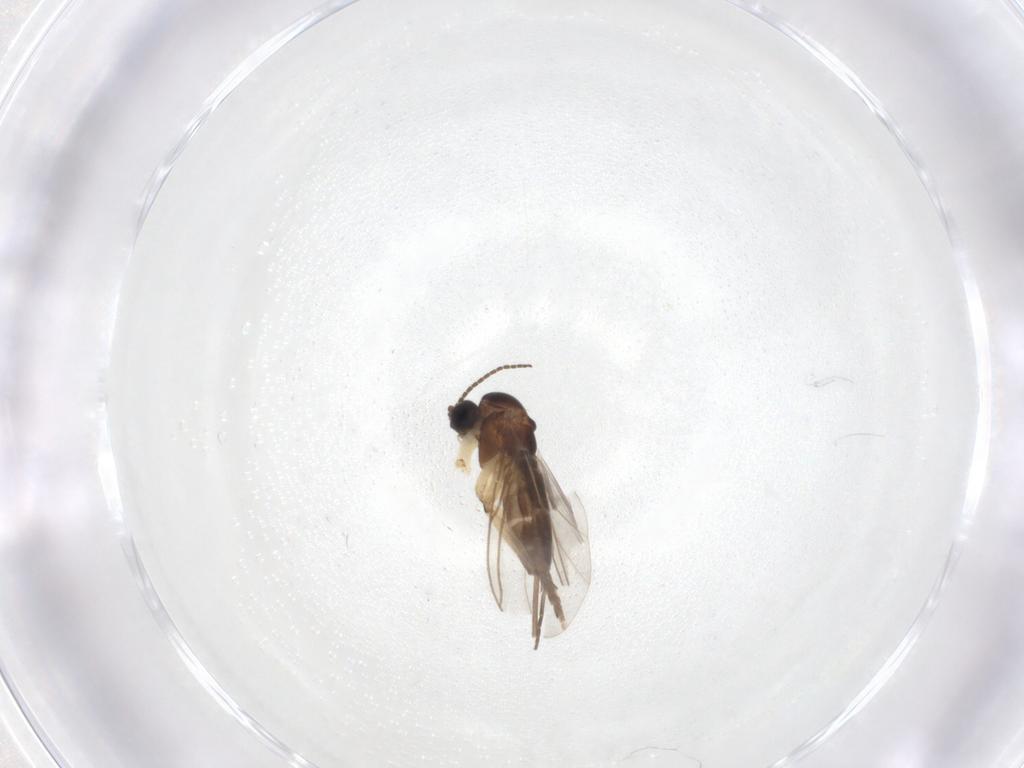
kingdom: Animalia
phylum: Arthropoda
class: Insecta
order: Diptera
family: Sciaridae
